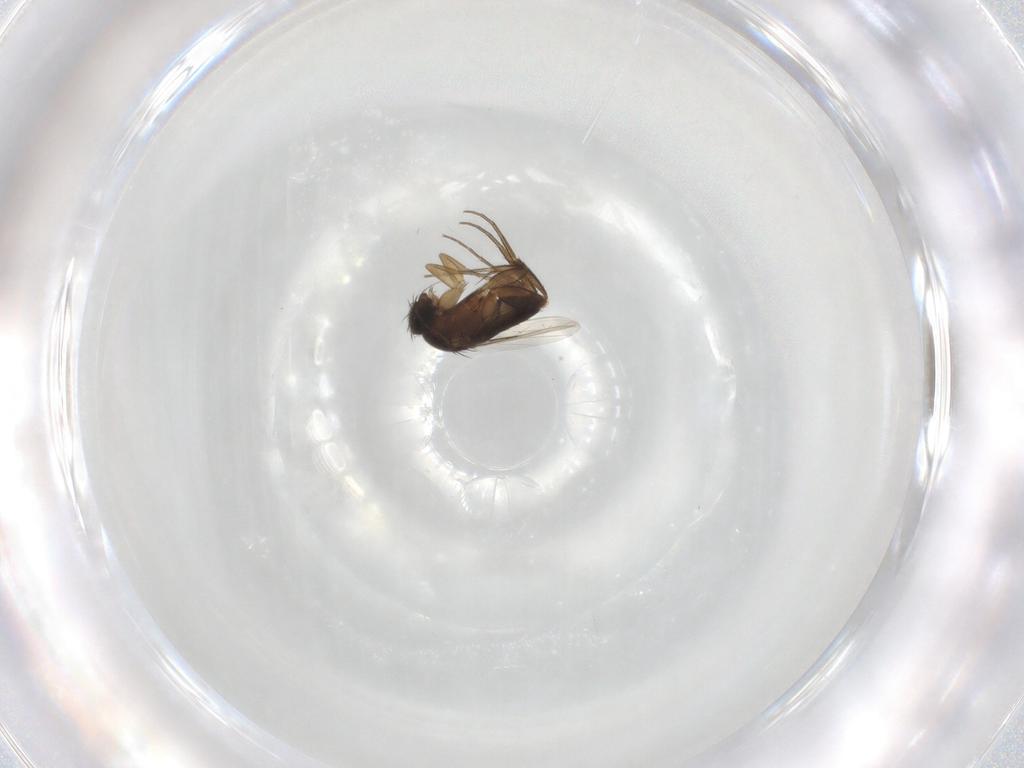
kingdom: Animalia
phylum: Arthropoda
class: Insecta
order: Diptera
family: Phoridae
